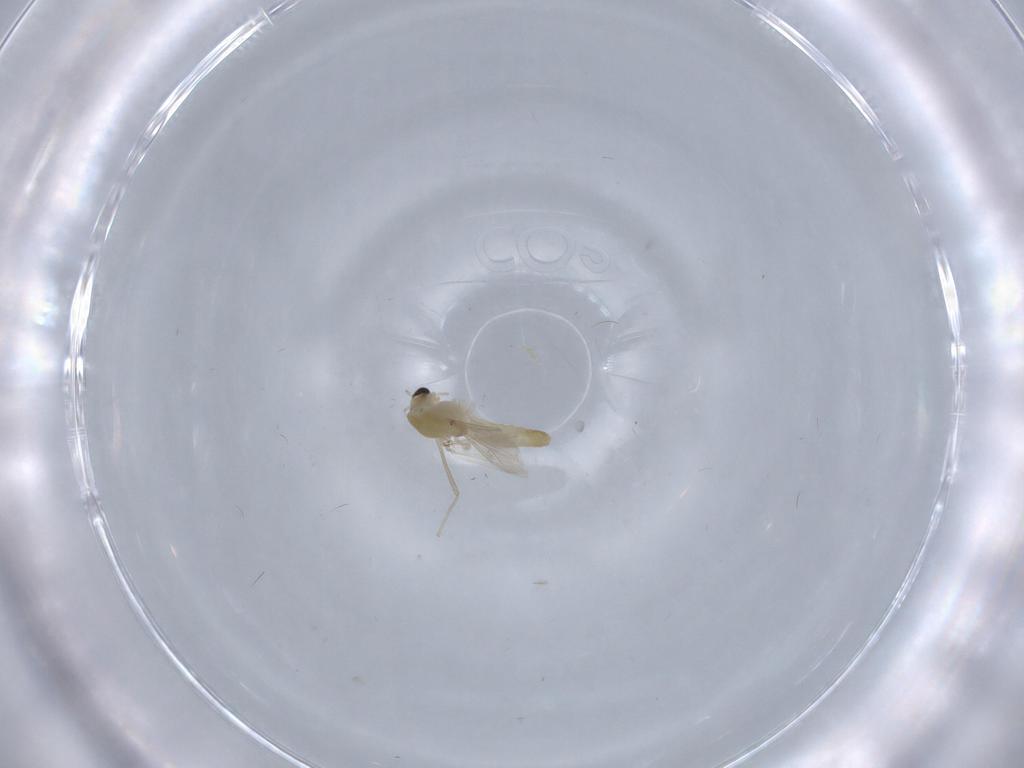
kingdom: Animalia
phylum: Arthropoda
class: Insecta
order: Diptera
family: Chironomidae
